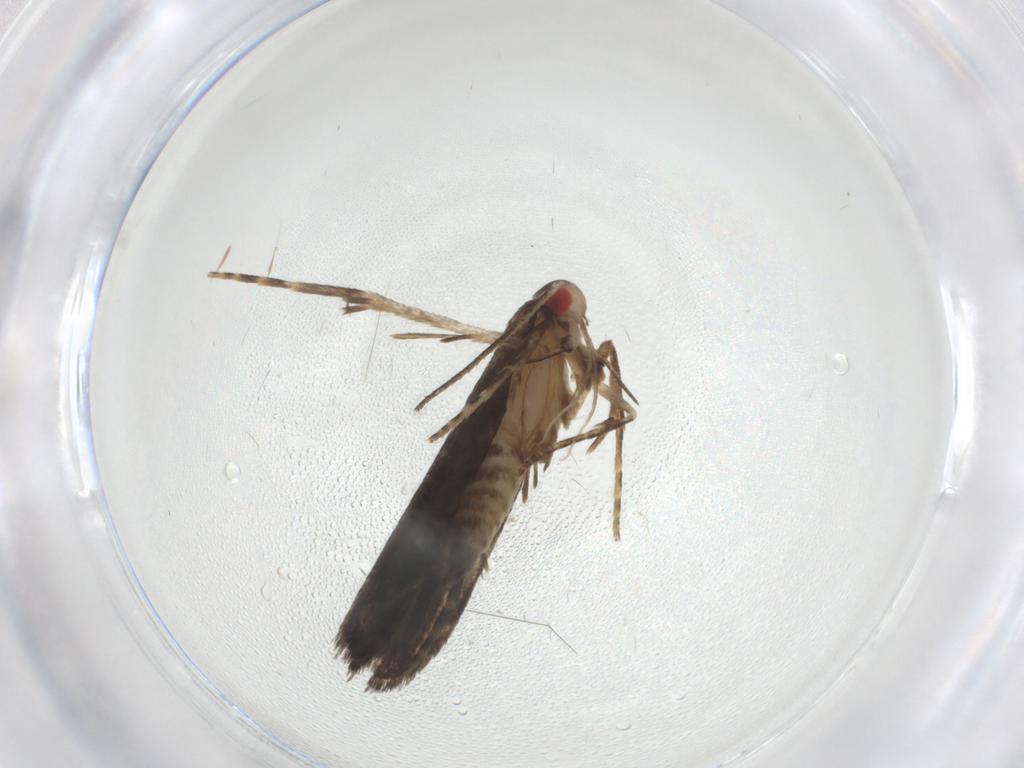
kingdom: Animalia
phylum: Arthropoda
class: Insecta
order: Lepidoptera
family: Gelechiidae
